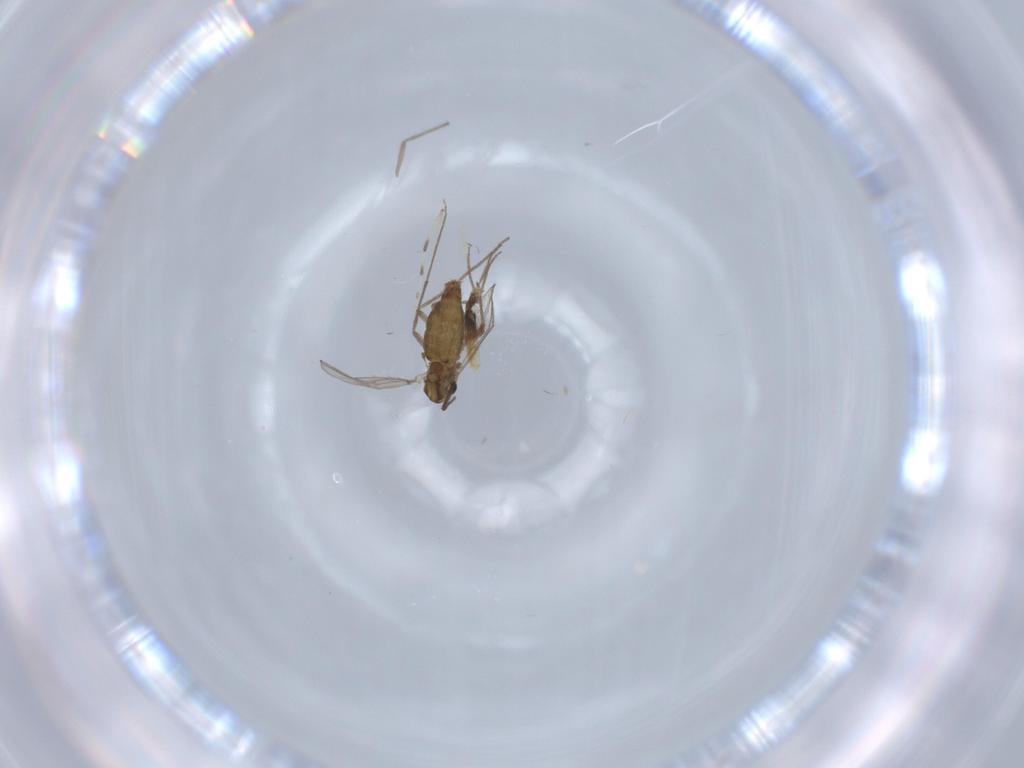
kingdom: Animalia
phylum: Arthropoda
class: Insecta
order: Diptera
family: Chironomidae
